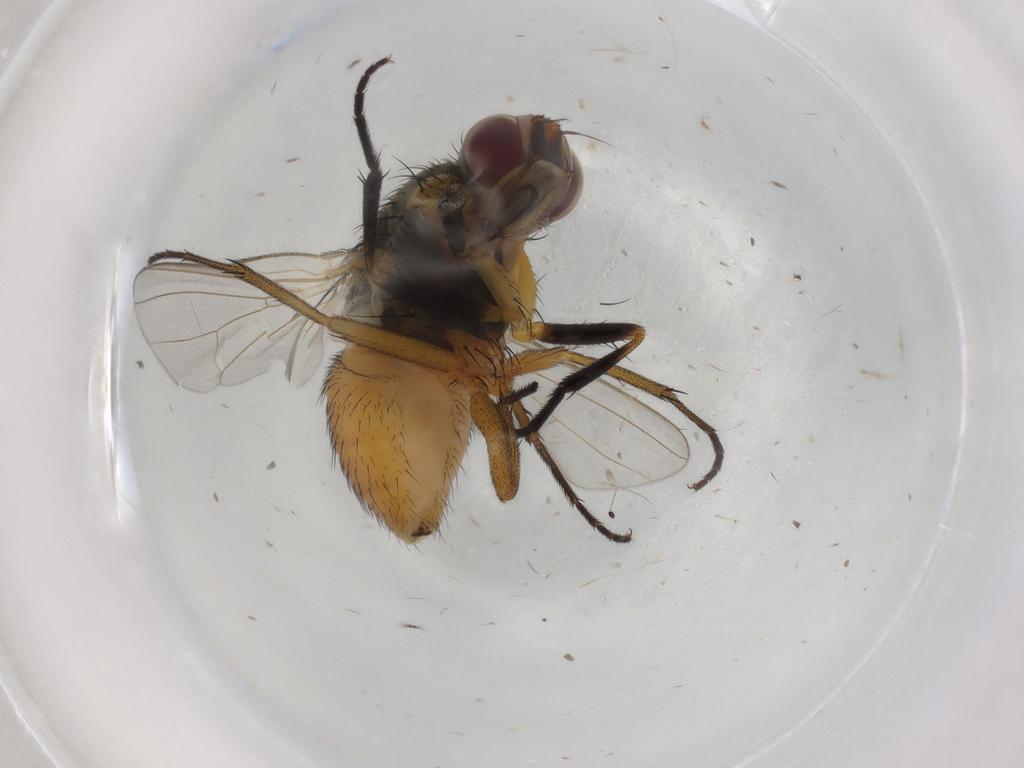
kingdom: Animalia
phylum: Arthropoda
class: Insecta
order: Diptera
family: Muscidae
